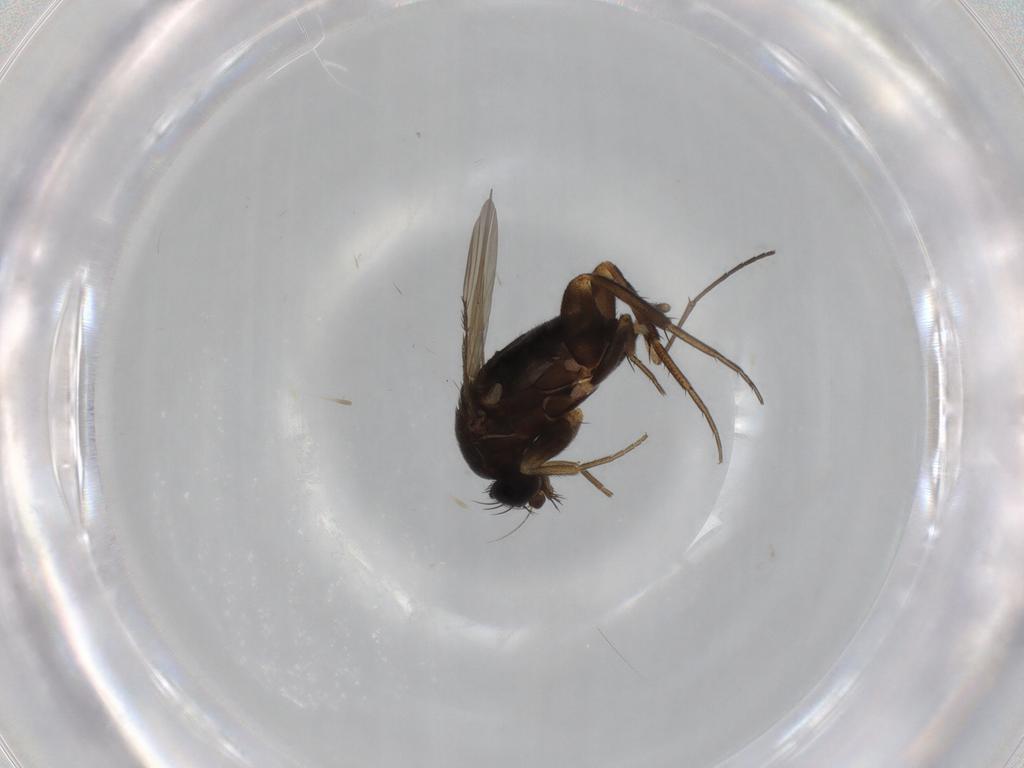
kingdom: Animalia
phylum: Arthropoda
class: Insecta
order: Diptera
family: Phoridae
